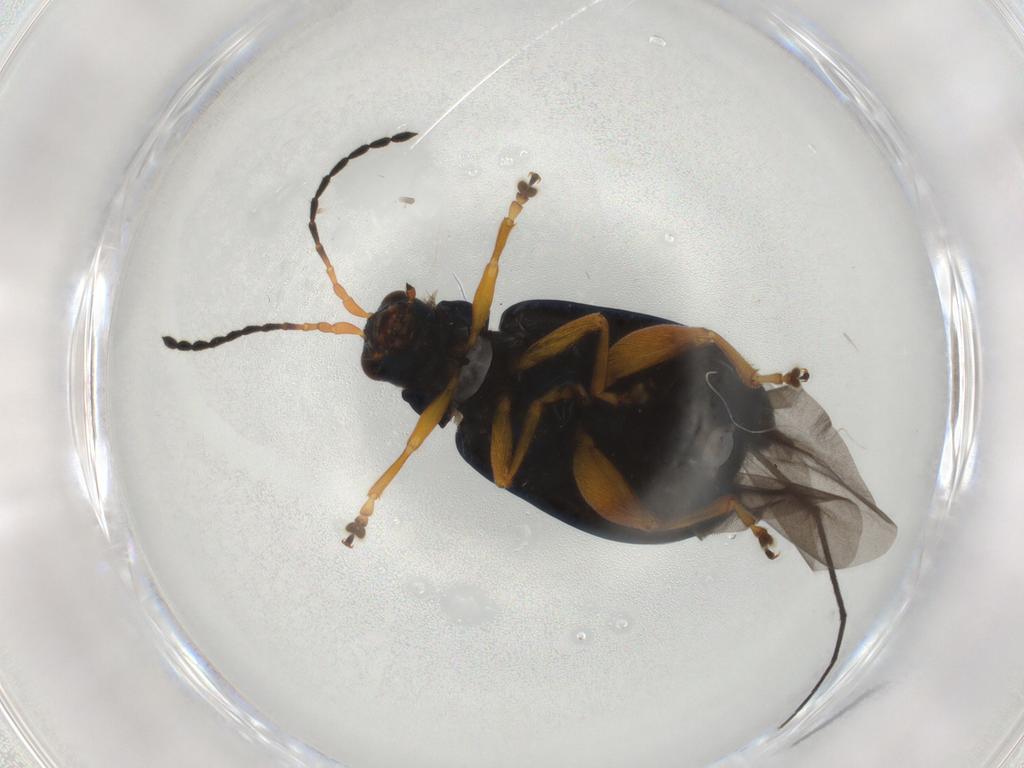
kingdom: Animalia
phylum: Arthropoda
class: Insecta
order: Coleoptera
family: Chrysomelidae
